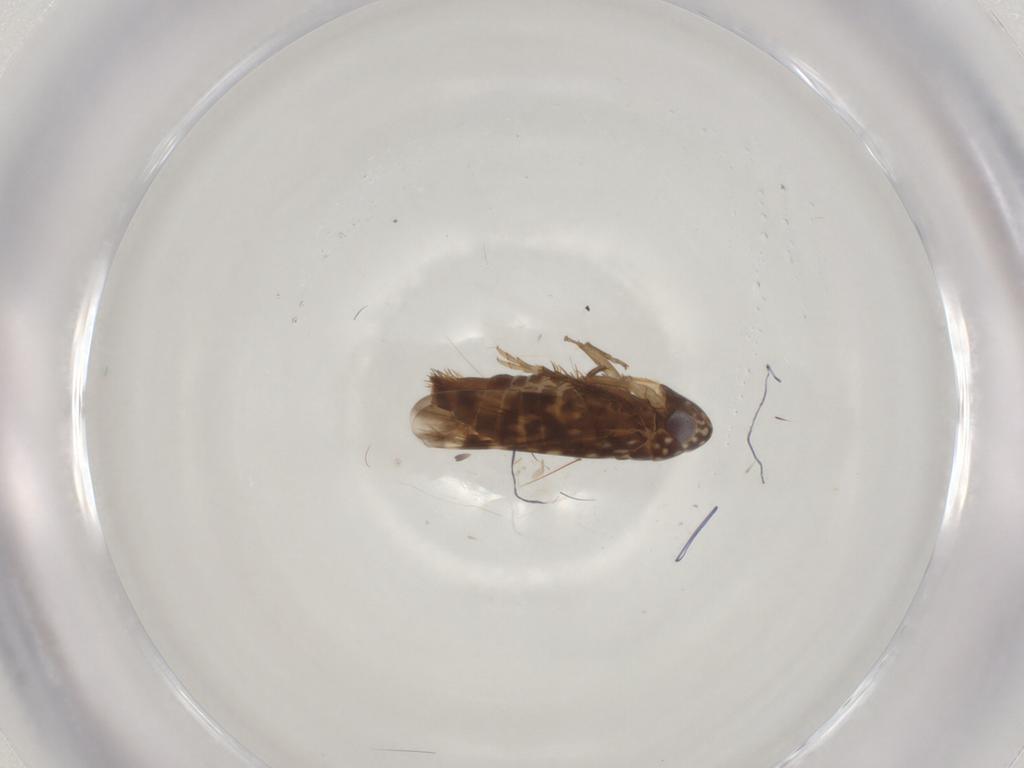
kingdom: Animalia
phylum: Arthropoda
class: Insecta
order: Hemiptera
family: Cicadellidae
